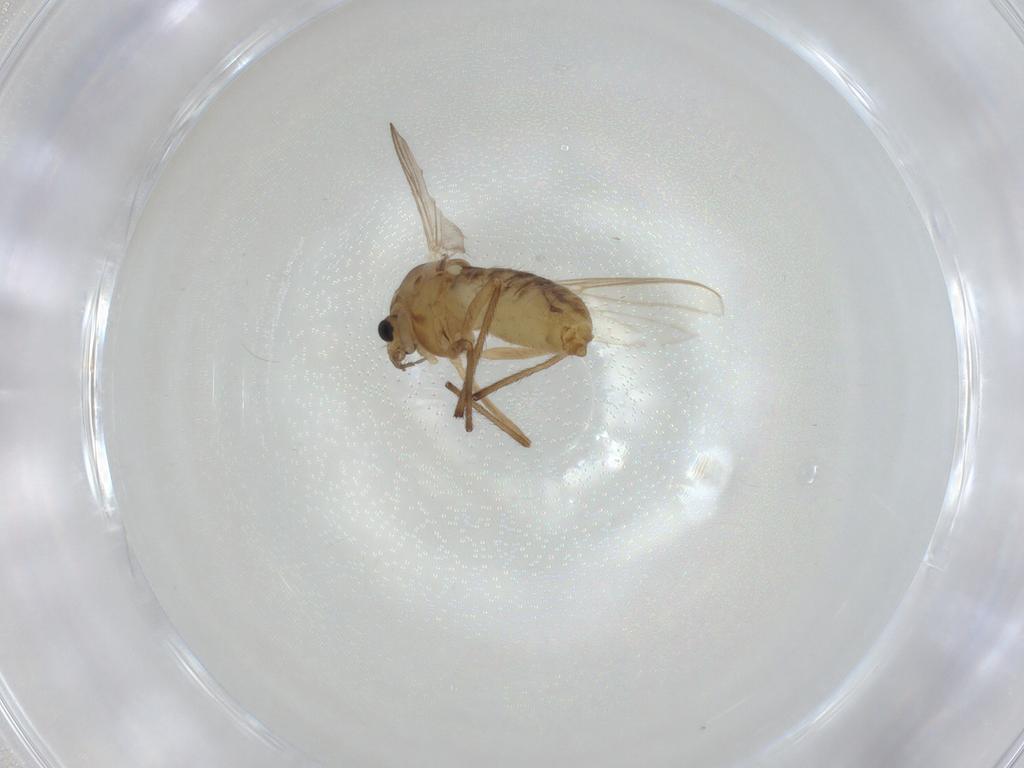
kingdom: Animalia
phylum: Arthropoda
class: Insecta
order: Diptera
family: Chironomidae
